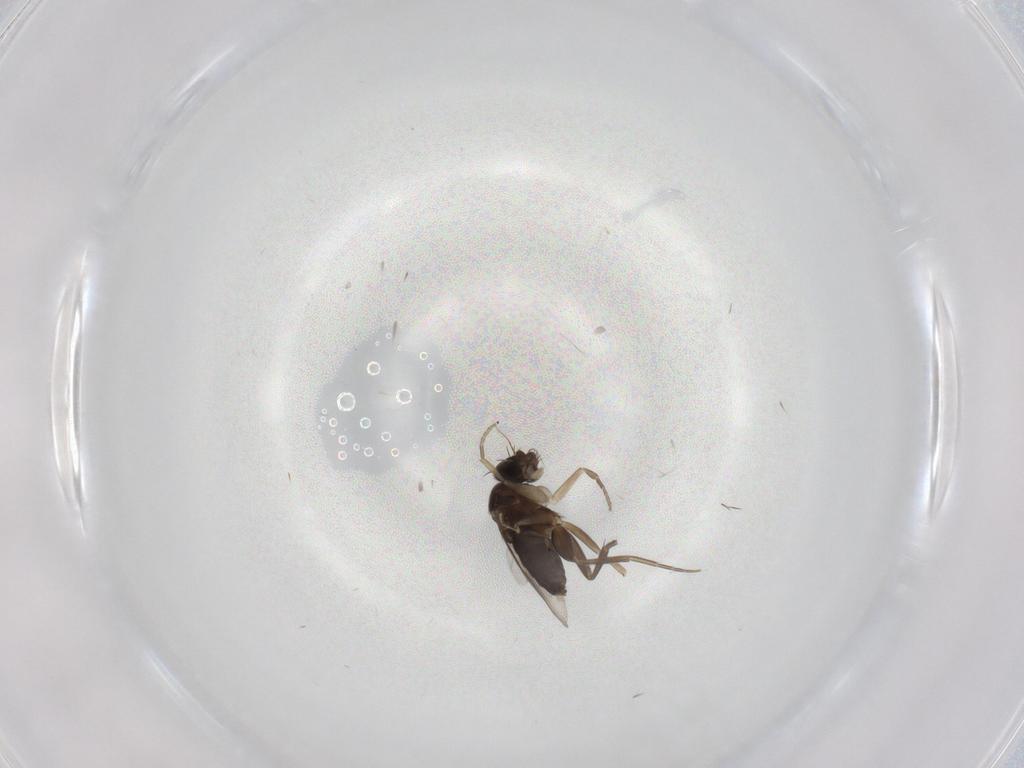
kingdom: Animalia
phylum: Arthropoda
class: Insecta
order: Diptera
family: Phoridae
